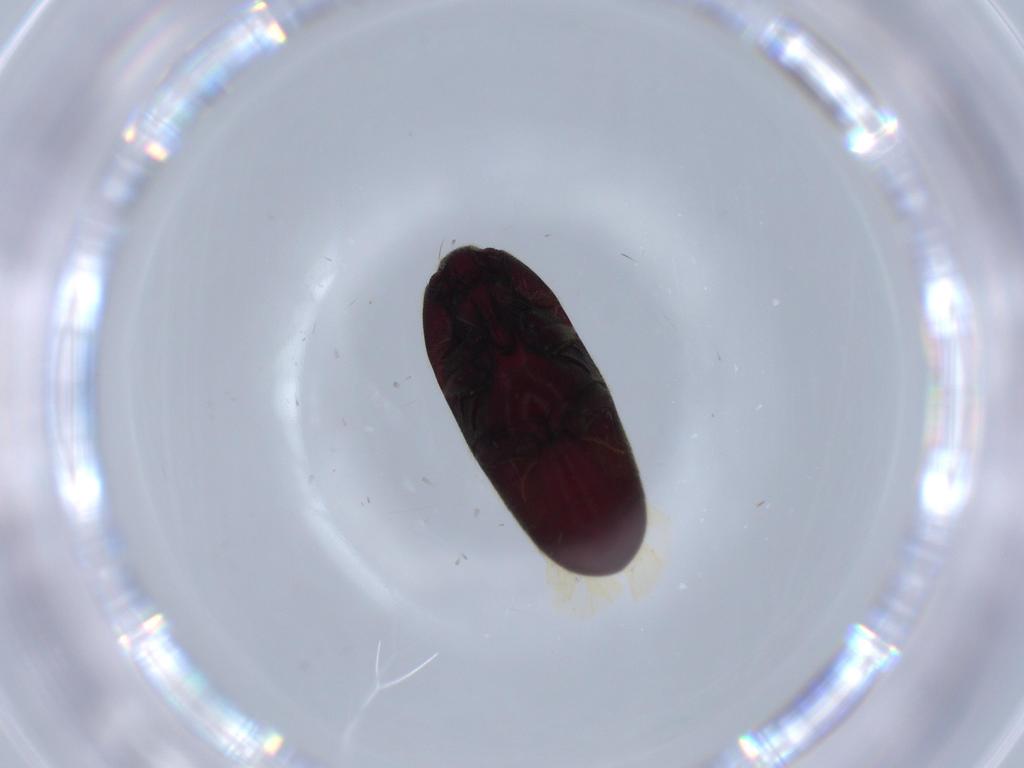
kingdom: Animalia
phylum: Arthropoda
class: Insecta
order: Coleoptera
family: Throscidae
